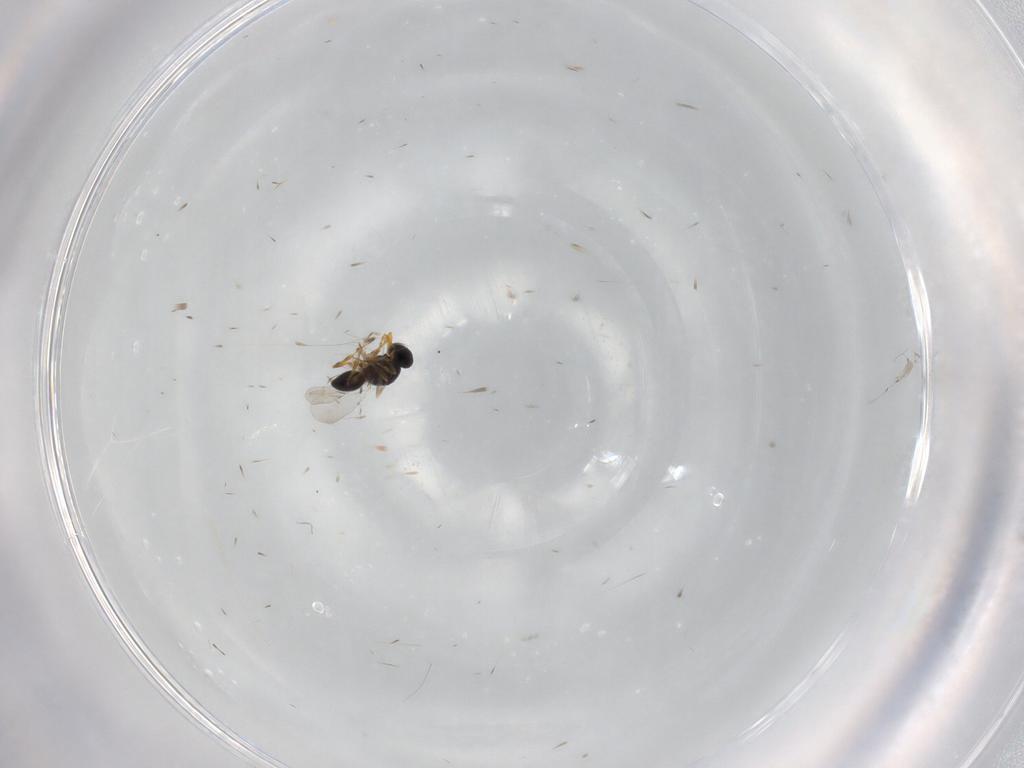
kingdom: Animalia
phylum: Arthropoda
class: Insecta
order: Hymenoptera
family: Platygastridae
